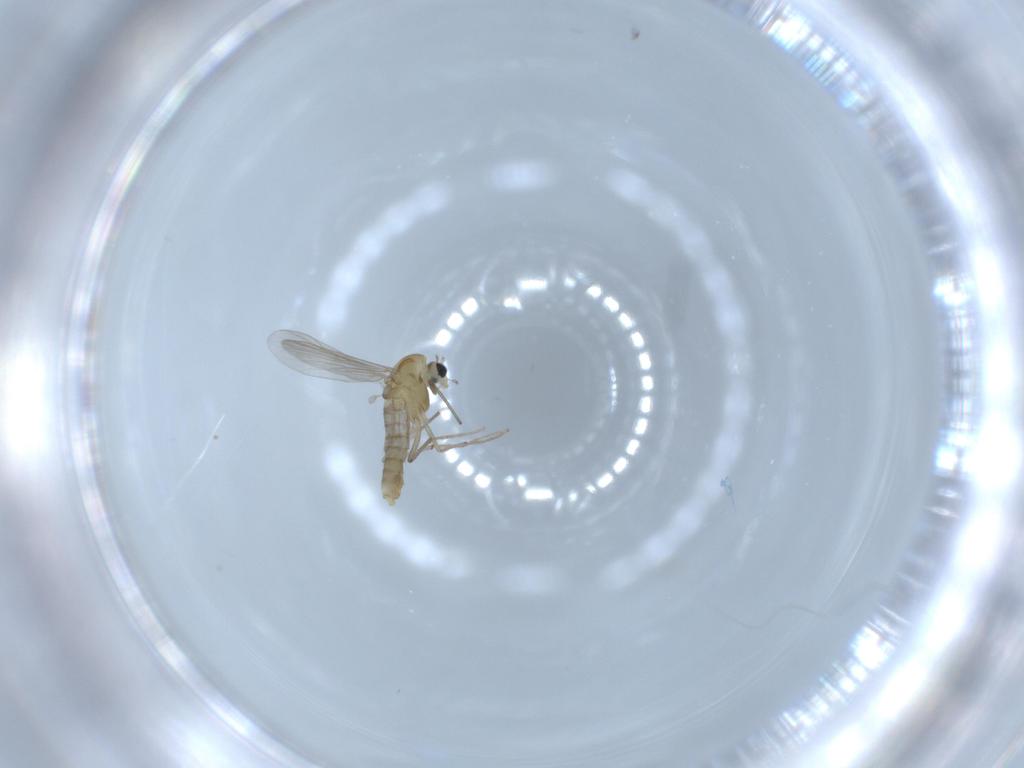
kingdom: Animalia
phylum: Arthropoda
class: Insecta
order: Diptera
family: Chironomidae
